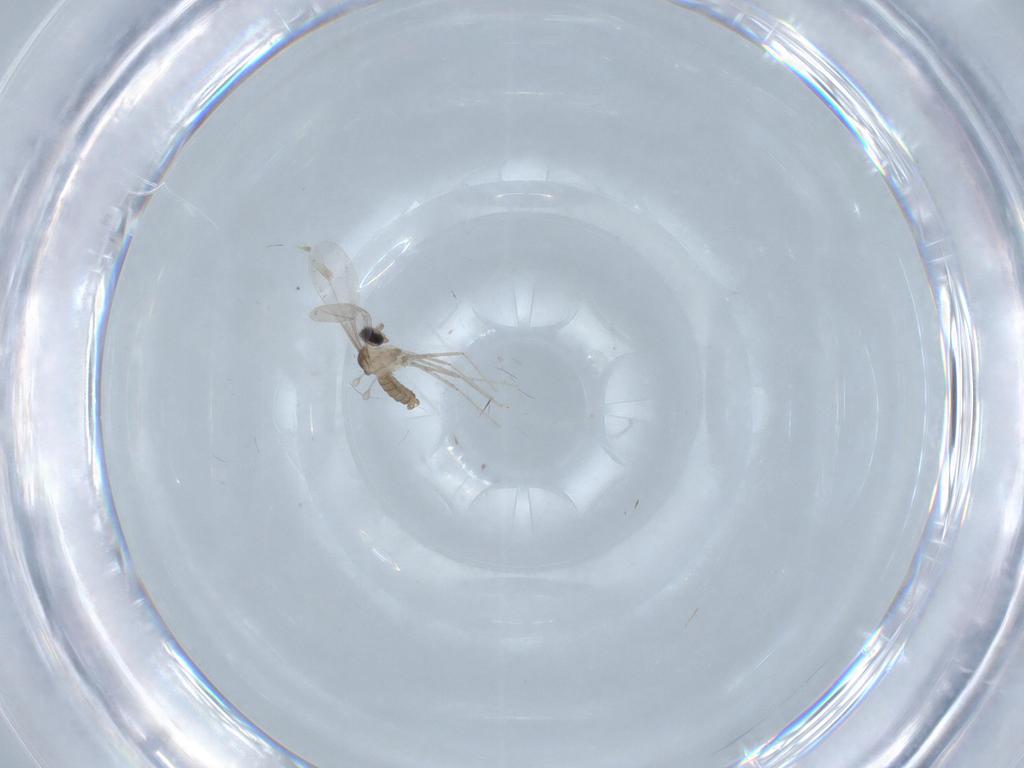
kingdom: Animalia
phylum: Arthropoda
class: Insecta
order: Diptera
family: Cecidomyiidae
